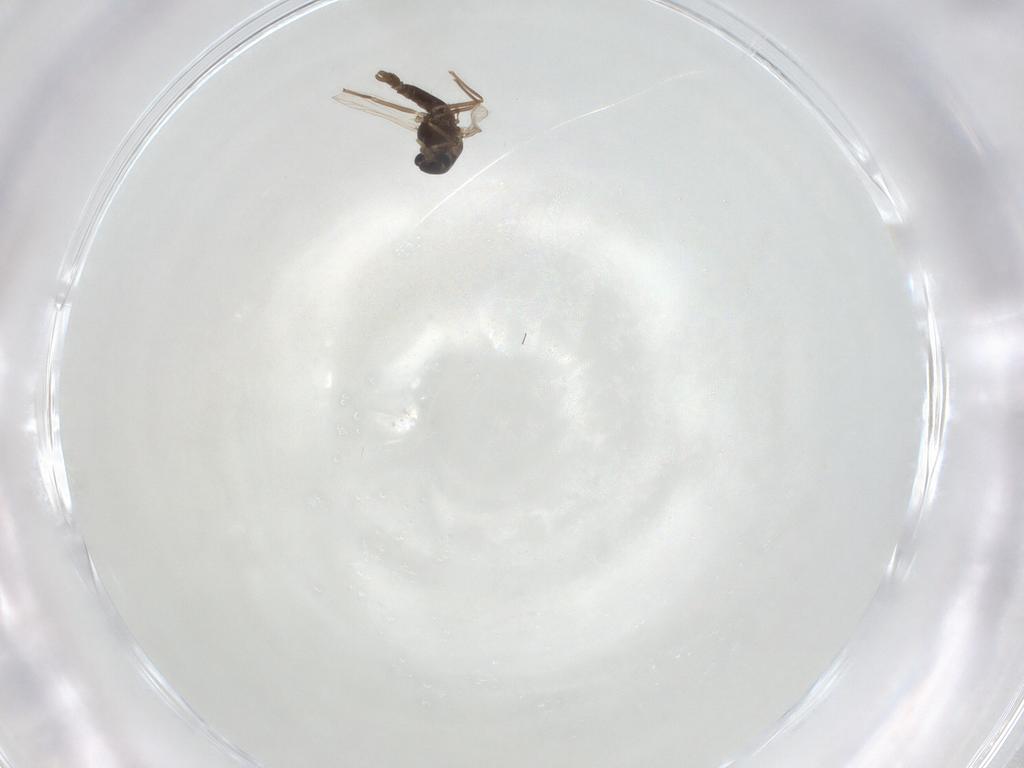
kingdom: Animalia
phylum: Arthropoda
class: Insecta
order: Diptera
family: Chironomidae
